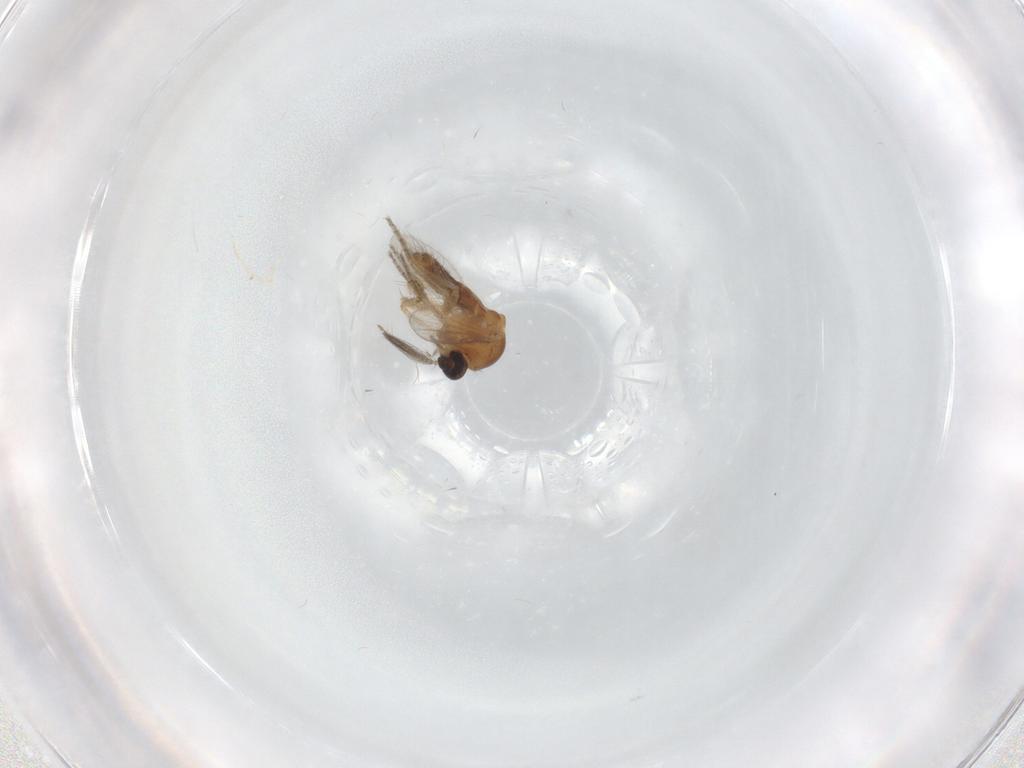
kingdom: Animalia
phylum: Arthropoda
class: Insecta
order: Diptera
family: Ceratopogonidae
